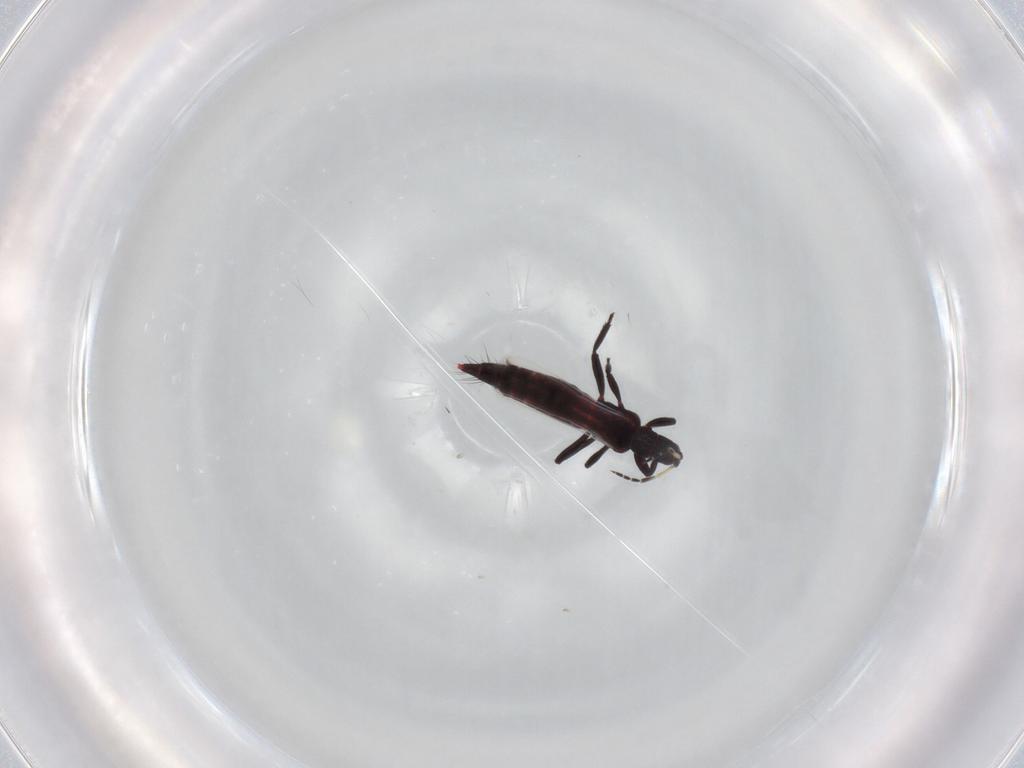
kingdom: Animalia
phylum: Arthropoda
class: Insecta
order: Thysanoptera
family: Aeolothripidae
